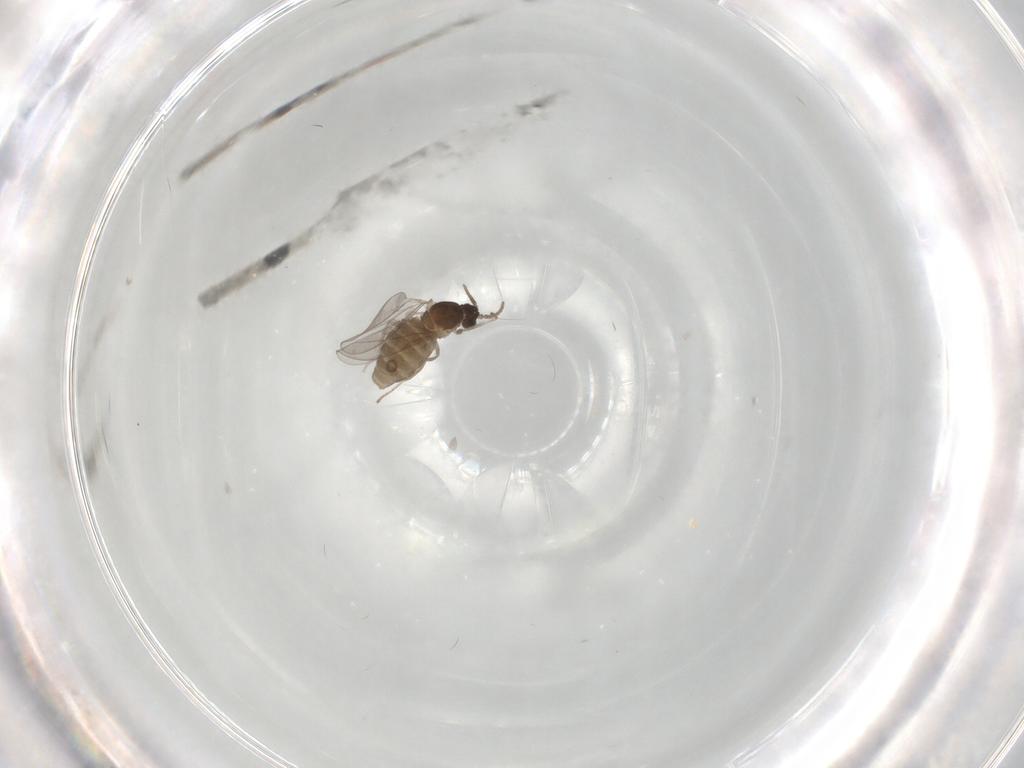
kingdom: Animalia
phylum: Arthropoda
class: Insecta
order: Diptera
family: Cecidomyiidae
